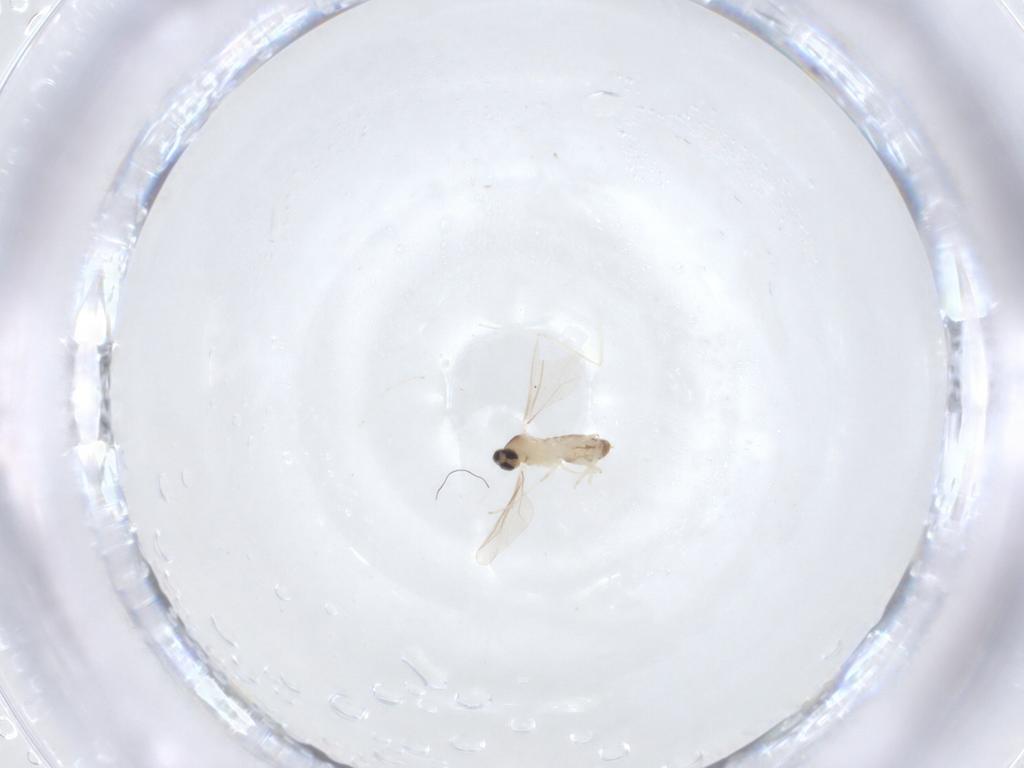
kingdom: Animalia
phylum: Arthropoda
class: Insecta
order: Diptera
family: Cecidomyiidae
